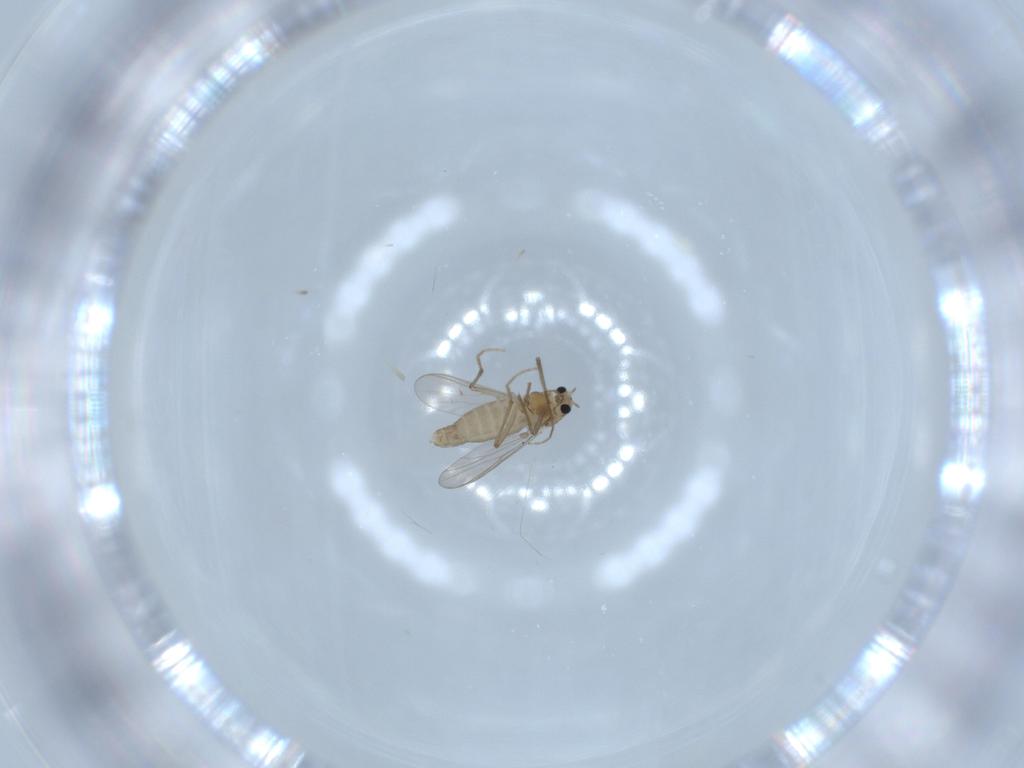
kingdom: Animalia
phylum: Arthropoda
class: Insecta
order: Diptera
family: Chironomidae
